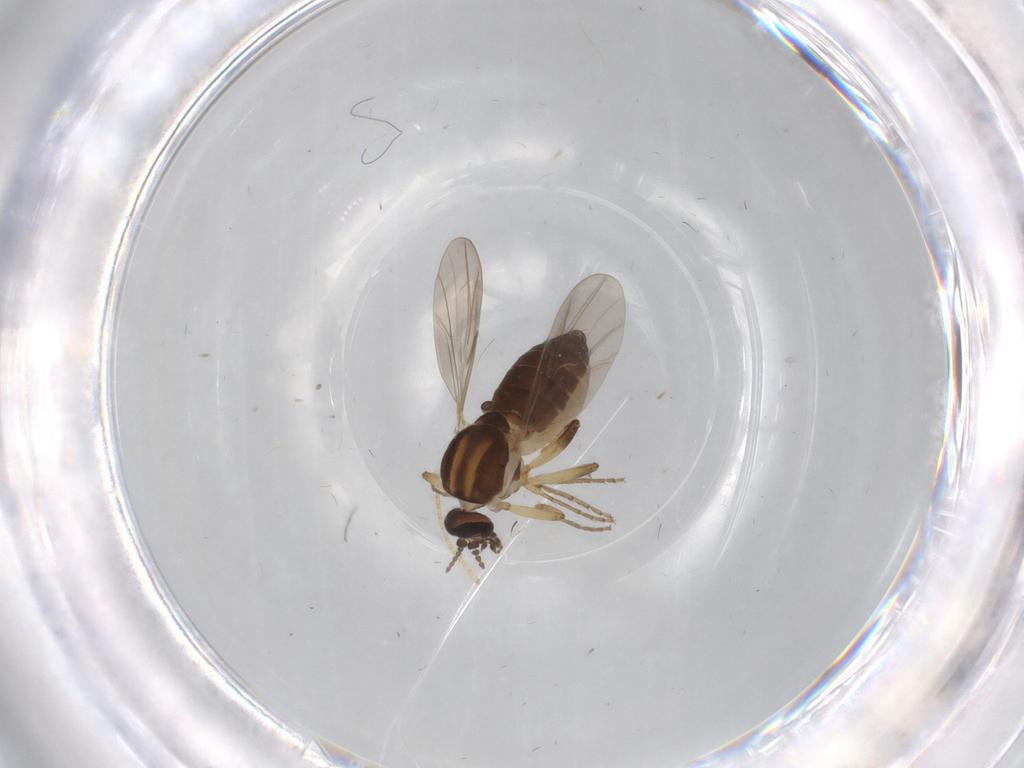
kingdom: Animalia
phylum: Arthropoda
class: Insecta
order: Diptera
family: Ceratopogonidae
